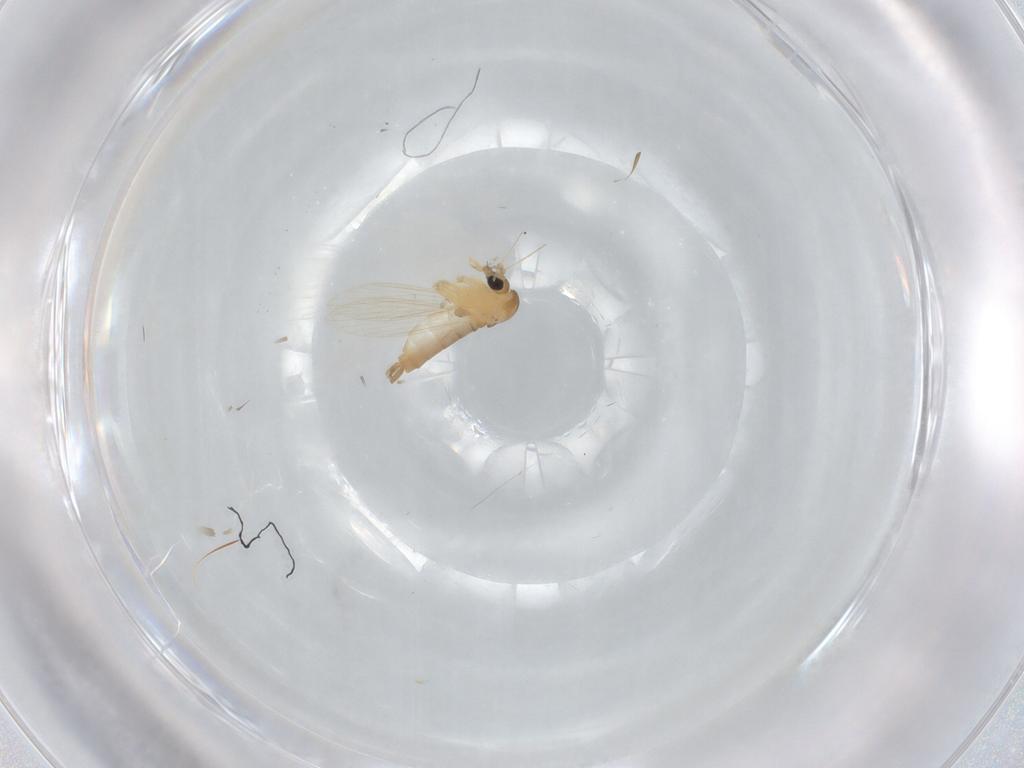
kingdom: Animalia
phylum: Arthropoda
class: Insecta
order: Diptera
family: Psychodidae
